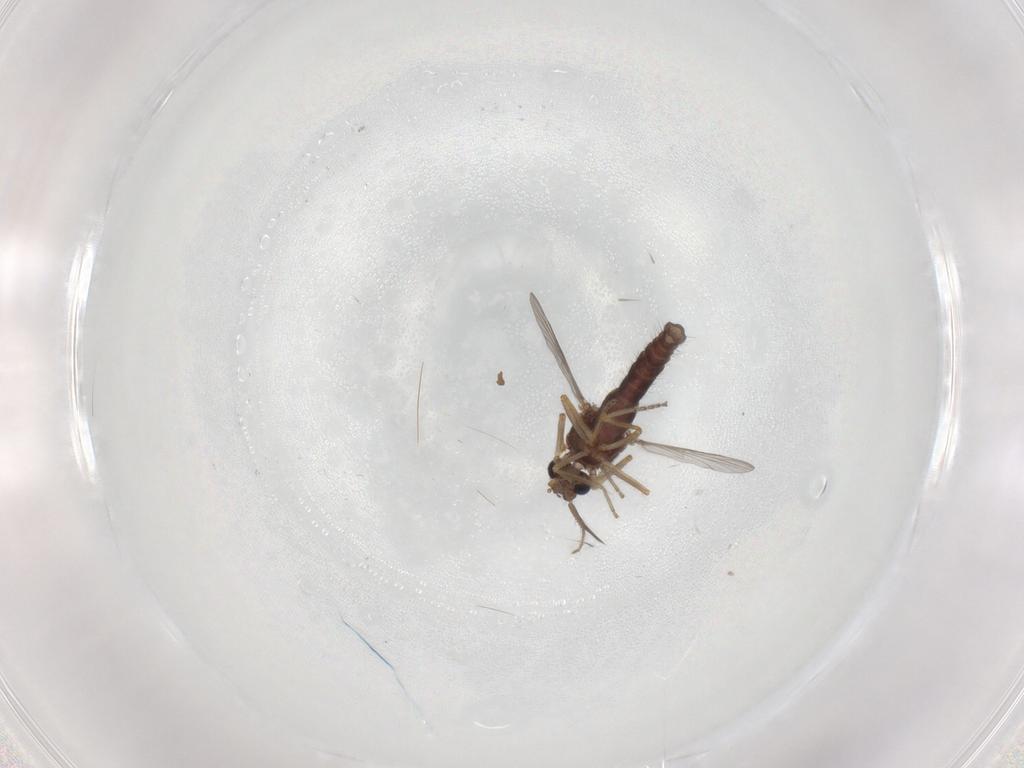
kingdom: Animalia
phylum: Arthropoda
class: Insecta
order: Diptera
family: Ceratopogonidae
